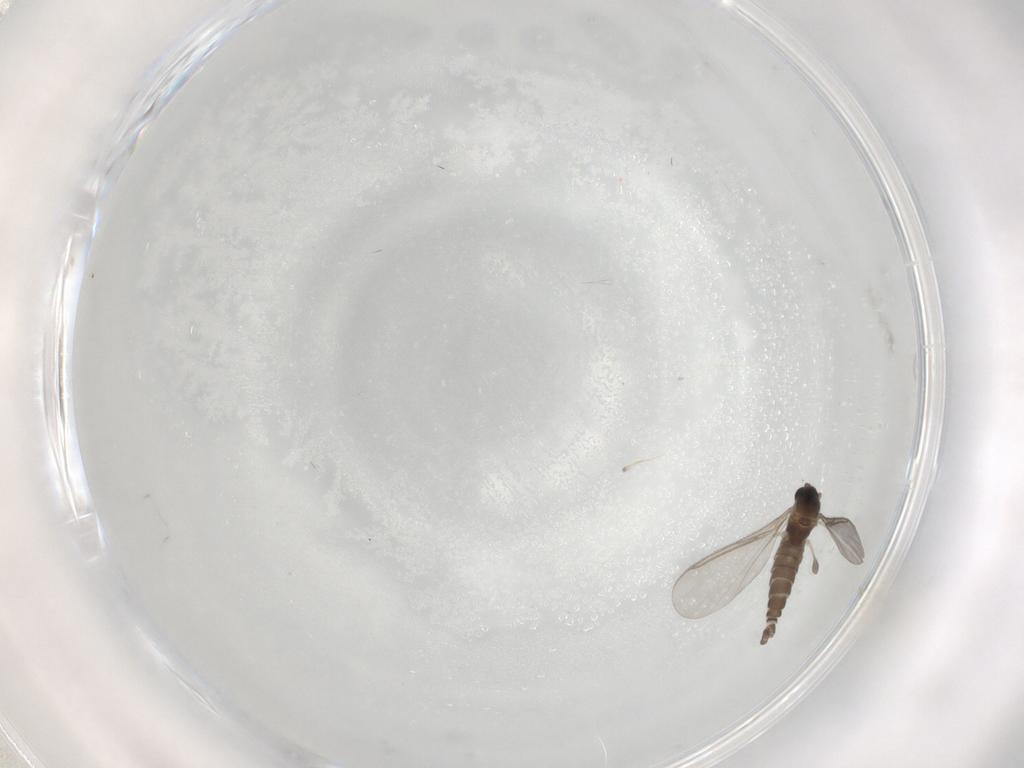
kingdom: Animalia
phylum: Arthropoda
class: Insecta
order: Diptera
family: Sciaridae
